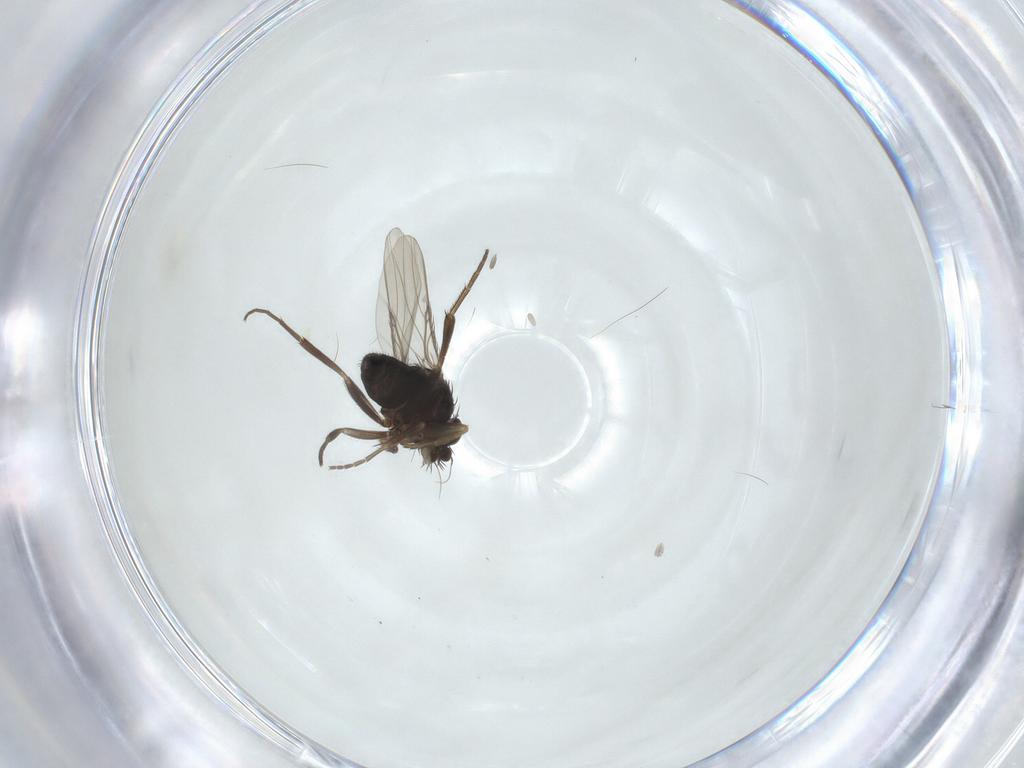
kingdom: Animalia
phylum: Arthropoda
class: Insecta
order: Diptera
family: Phoridae
